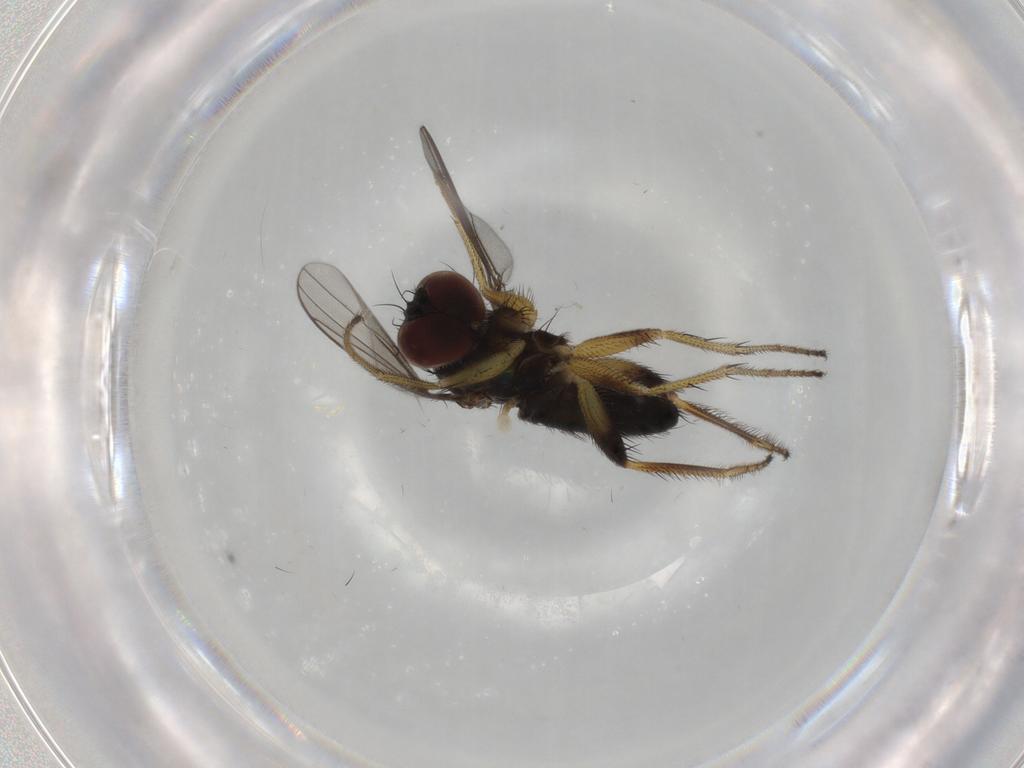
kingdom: Animalia
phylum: Arthropoda
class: Insecta
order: Diptera
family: Dolichopodidae
